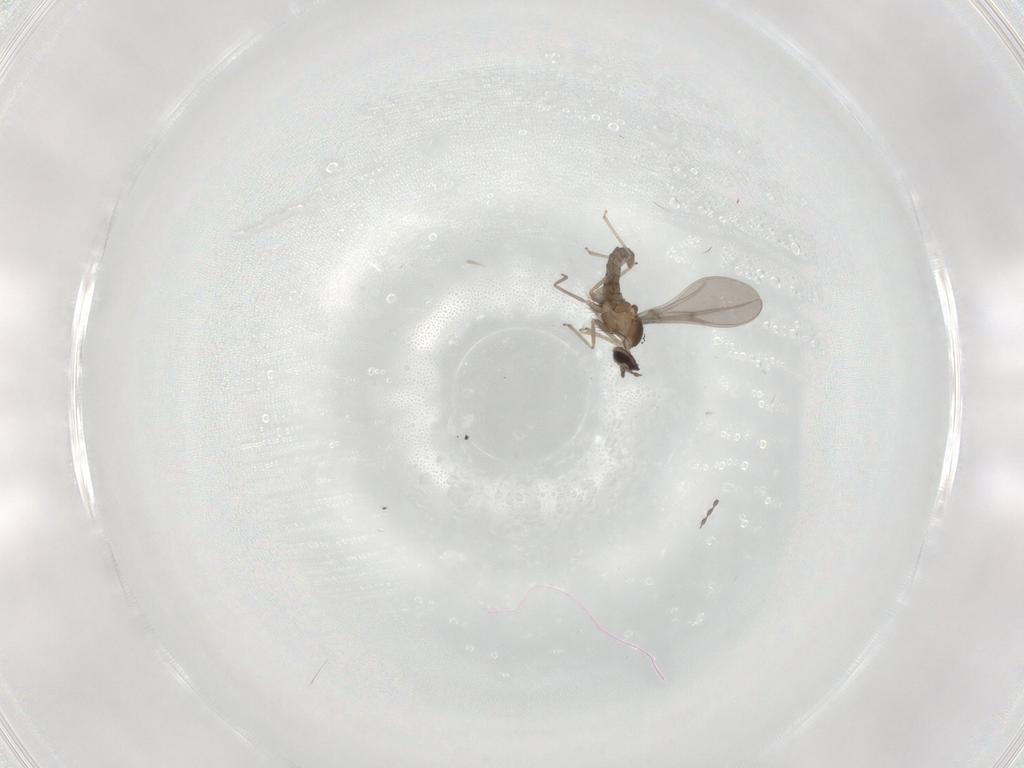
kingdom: Animalia
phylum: Arthropoda
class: Insecta
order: Diptera
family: Cecidomyiidae
